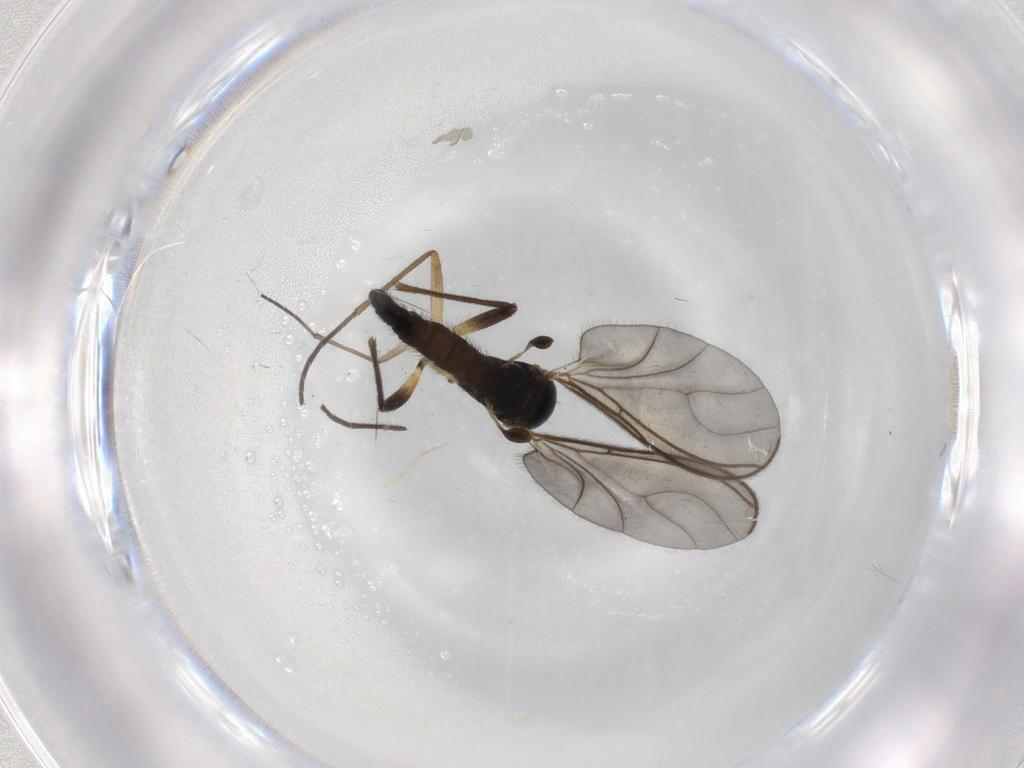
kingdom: Animalia
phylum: Arthropoda
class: Insecta
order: Diptera
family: Sciaridae
